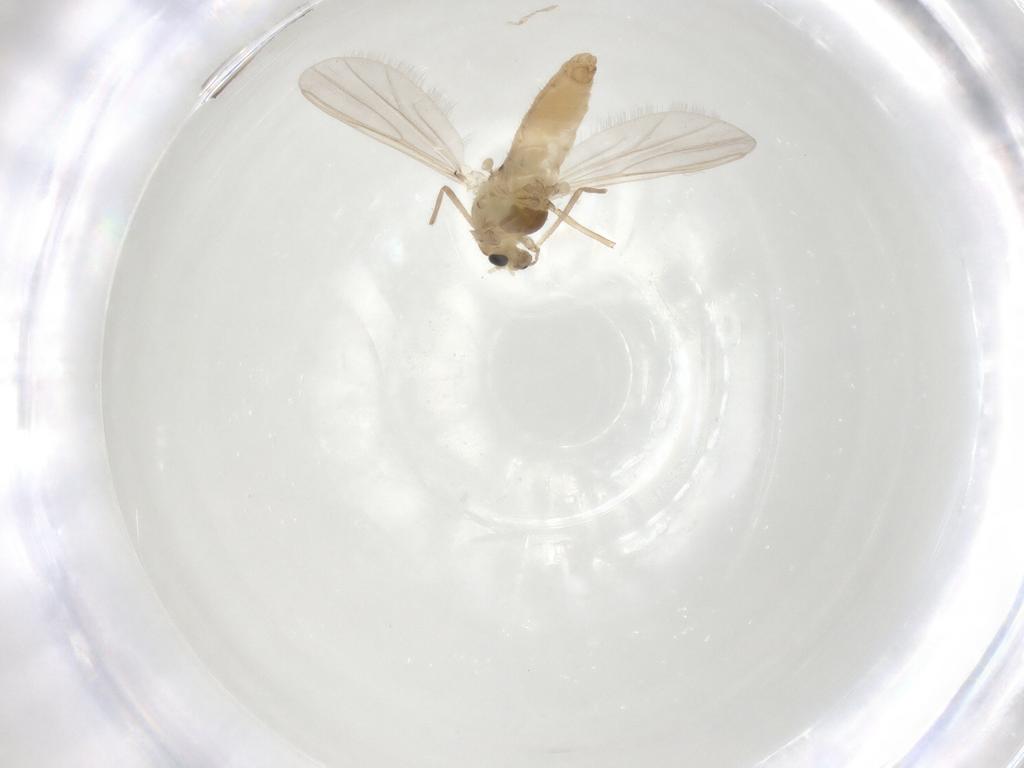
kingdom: Animalia
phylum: Arthropoda
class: Insecta
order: Diptera
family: Chironomidae
